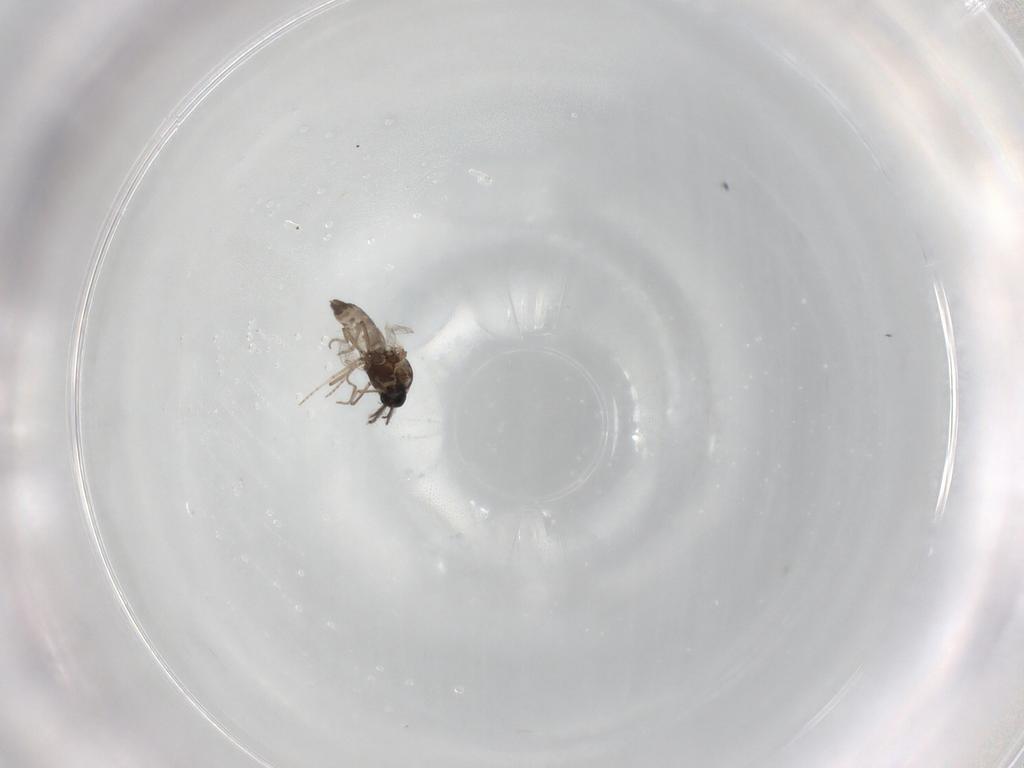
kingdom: Animalia
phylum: Arthropoda
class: Insecta
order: Diptera
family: Ceratopogonidae
